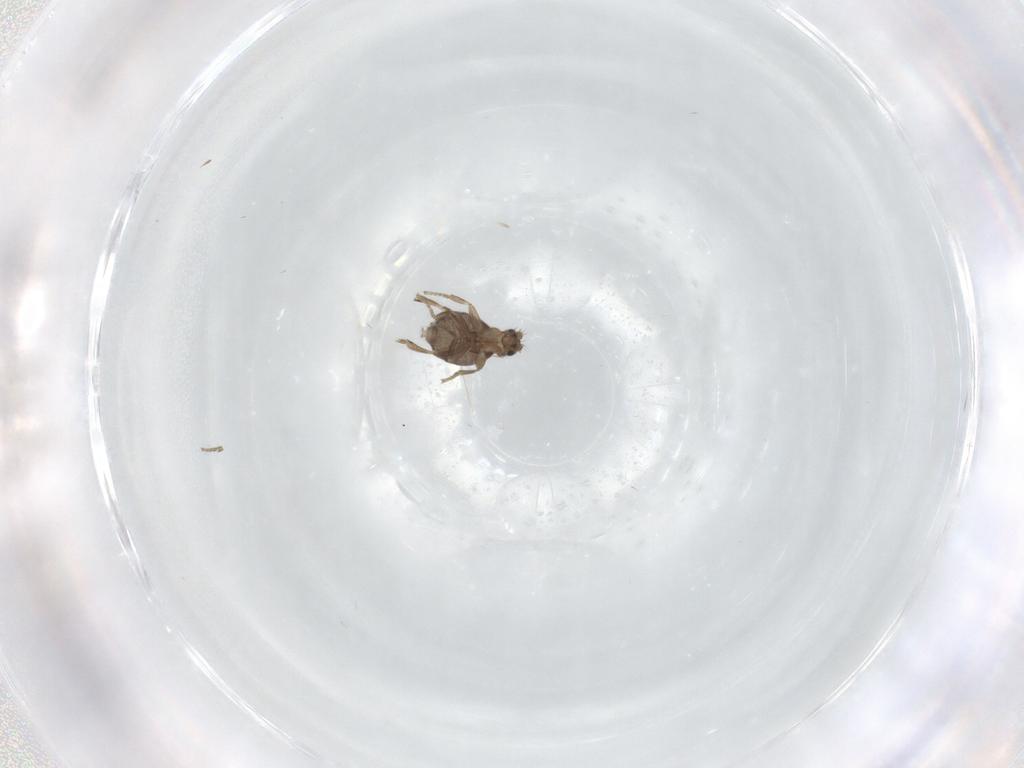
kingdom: Animalia
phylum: Arthropoda
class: Insecta
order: Diptera
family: Phoridae
